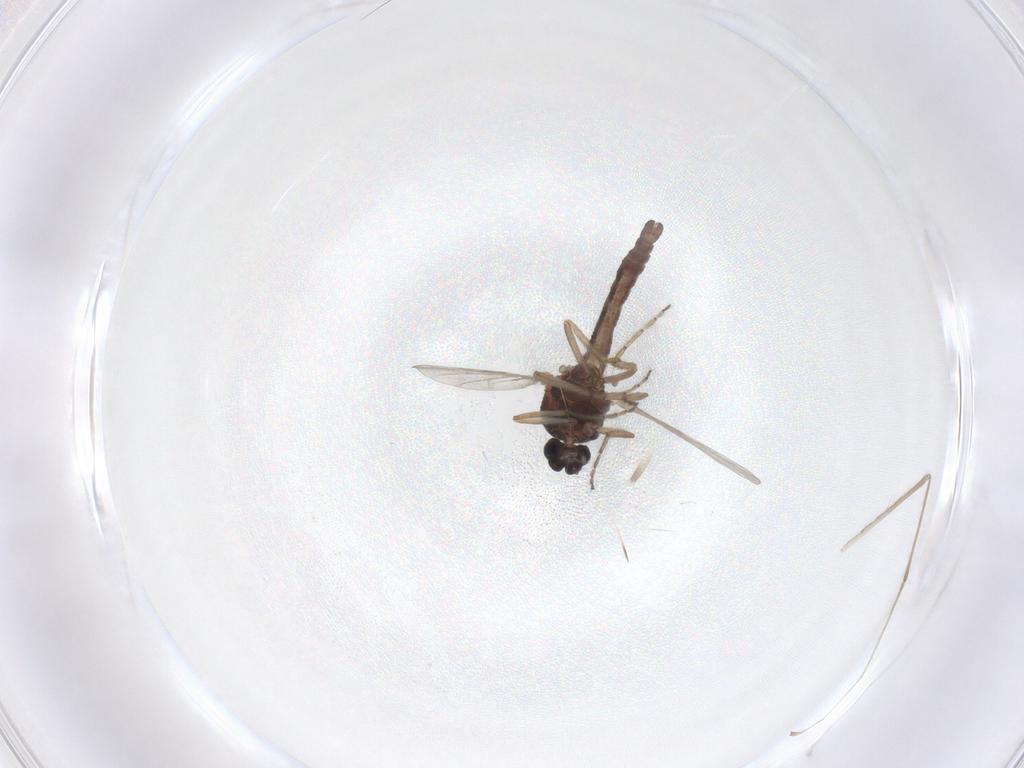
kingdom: Animalia
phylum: Arthropoda
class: Insecta
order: Diptera
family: Ceratopogonidae
